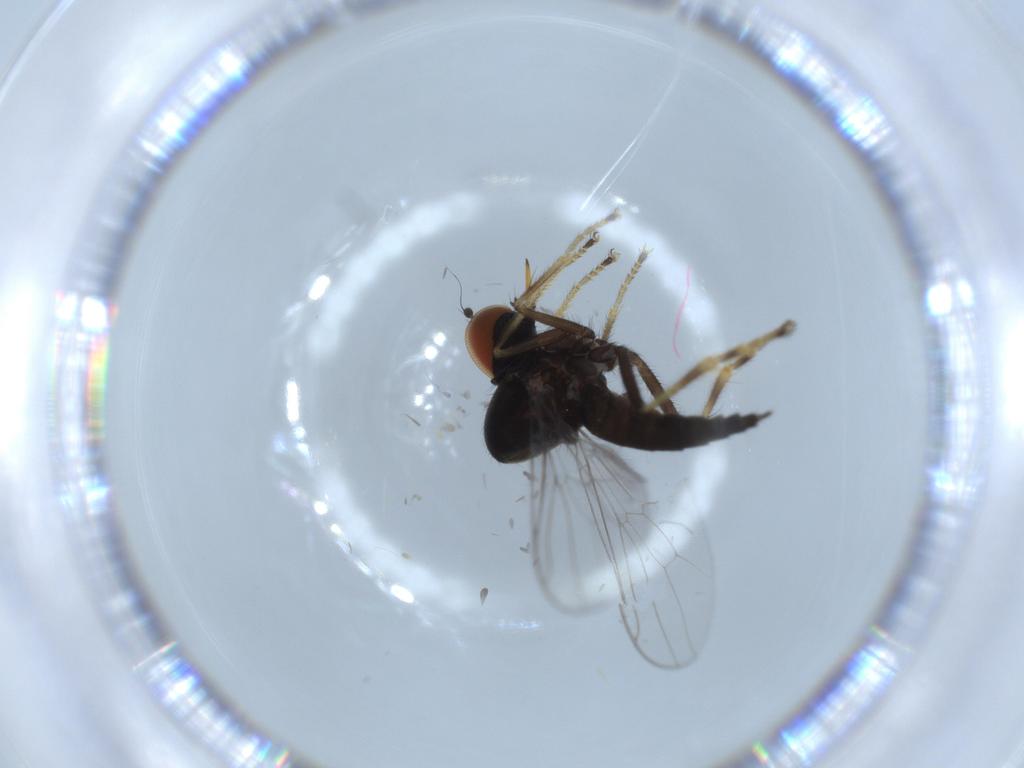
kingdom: Animalia
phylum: Arthropoda
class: Insecta
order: Diptera
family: Hybotidae
